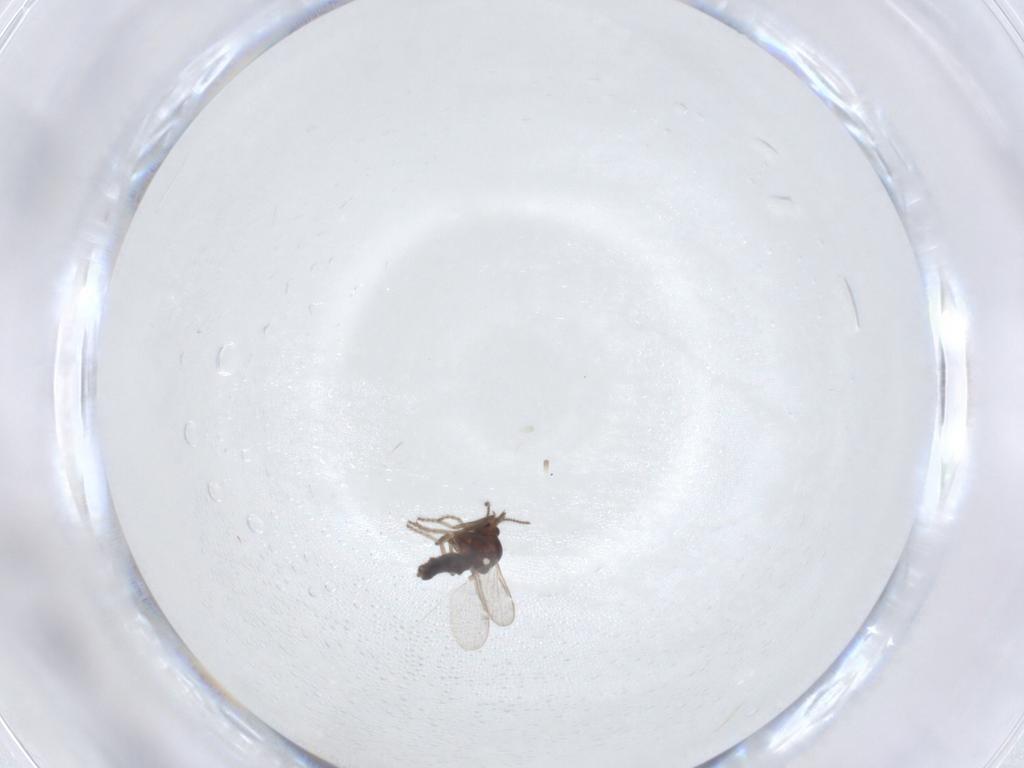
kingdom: Animalia
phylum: Arthropoda
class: Insecta
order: Diptera
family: Ceratopogonidae
